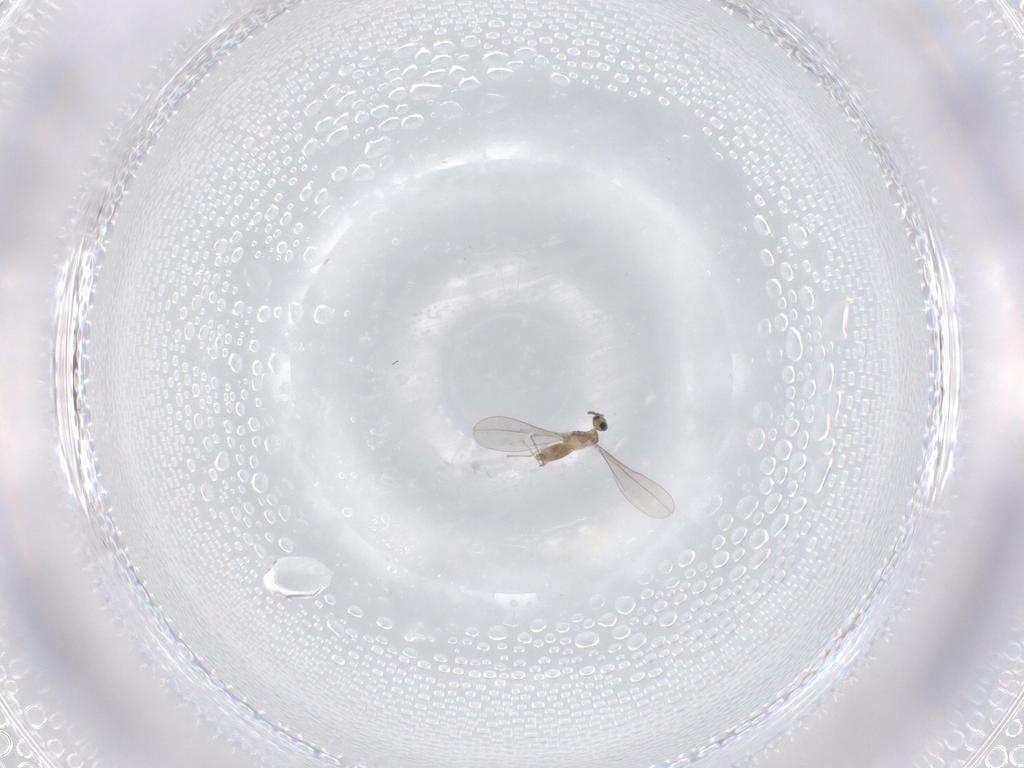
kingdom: Animalia
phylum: Arthropoda
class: Insecta
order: Diptera
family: Cecidomyiidae
